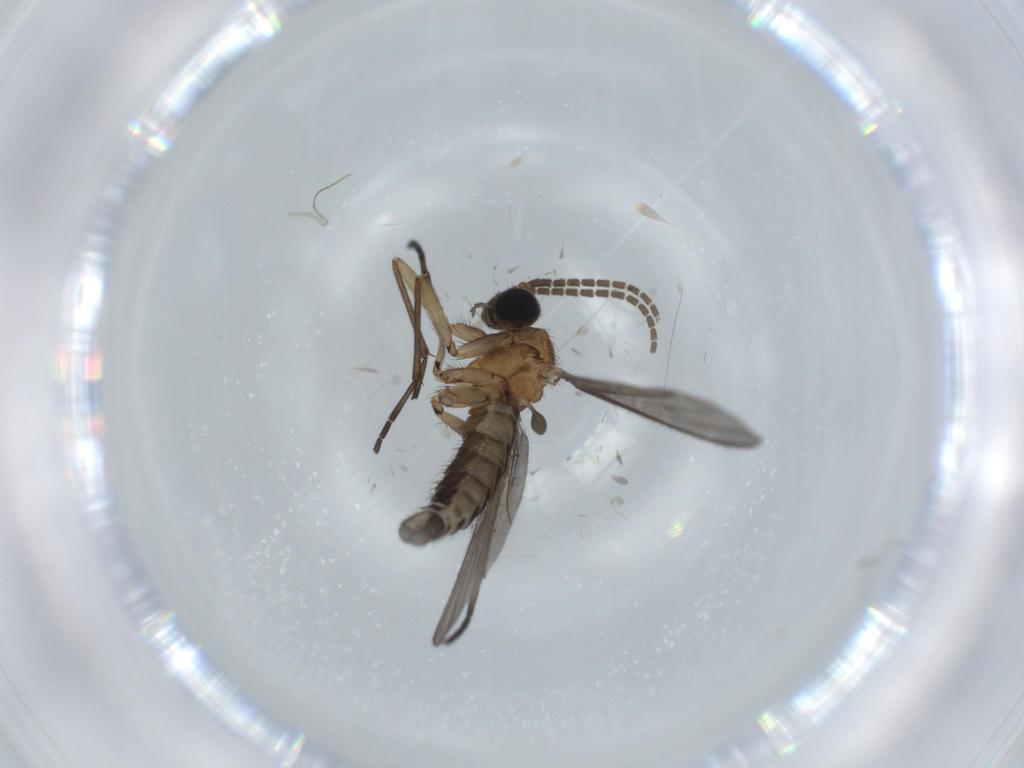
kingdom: Animalia
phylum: Arthropoda
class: Insecta
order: Diptera
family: Sciaridae
